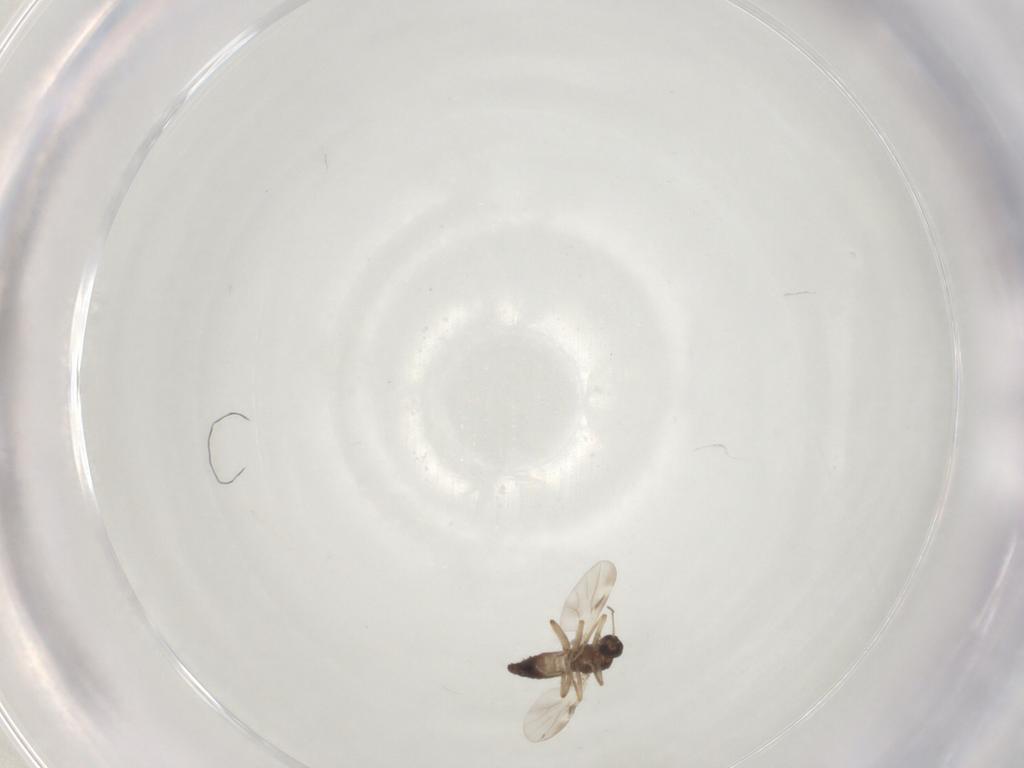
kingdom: Animalia
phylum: Arthropoda
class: Insecta
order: Diptera
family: Ceratopogonidae
